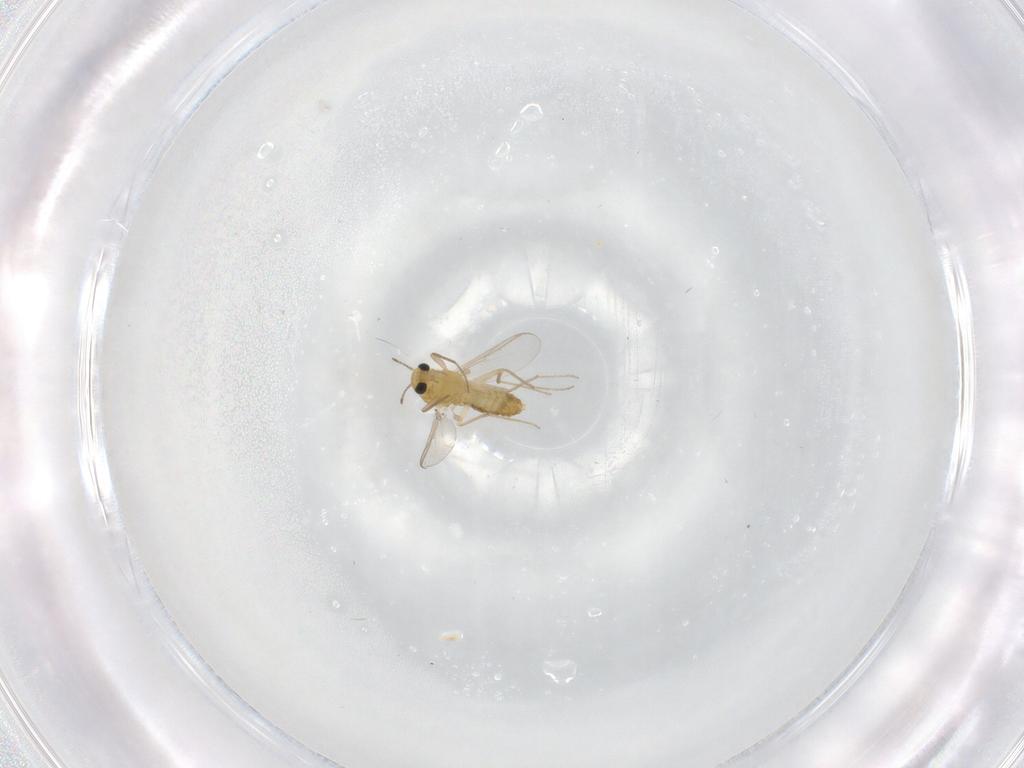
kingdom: Animalia
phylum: Arthropoda
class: Insecta
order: Diptera
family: Chironomidae
